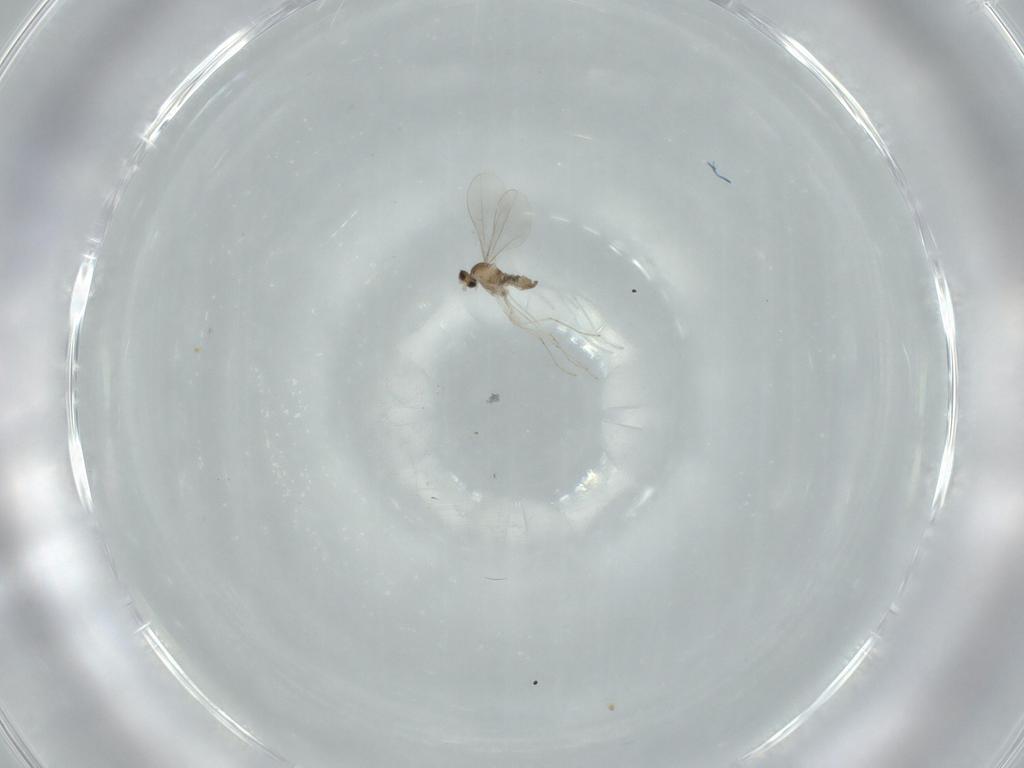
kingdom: Animalia
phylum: Arthropoda
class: Insecta
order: Diptera
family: Cecidomyiidae
